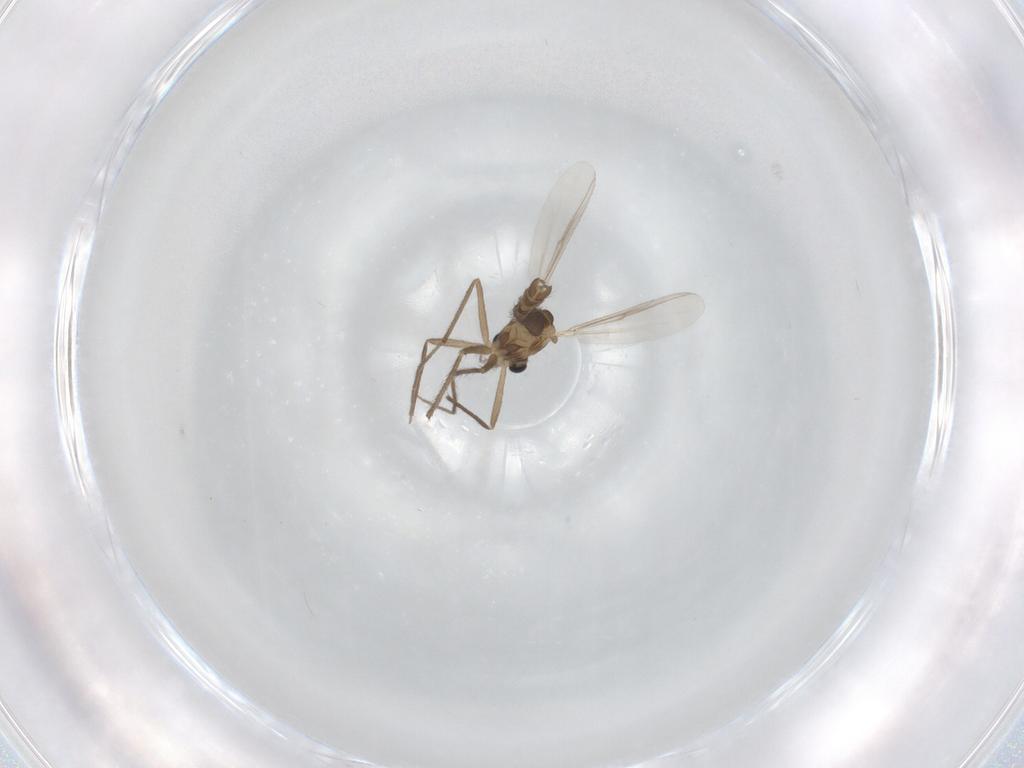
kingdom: Animalia
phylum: Arthropoda
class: Insecta
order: Diptera
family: Chironomidae
